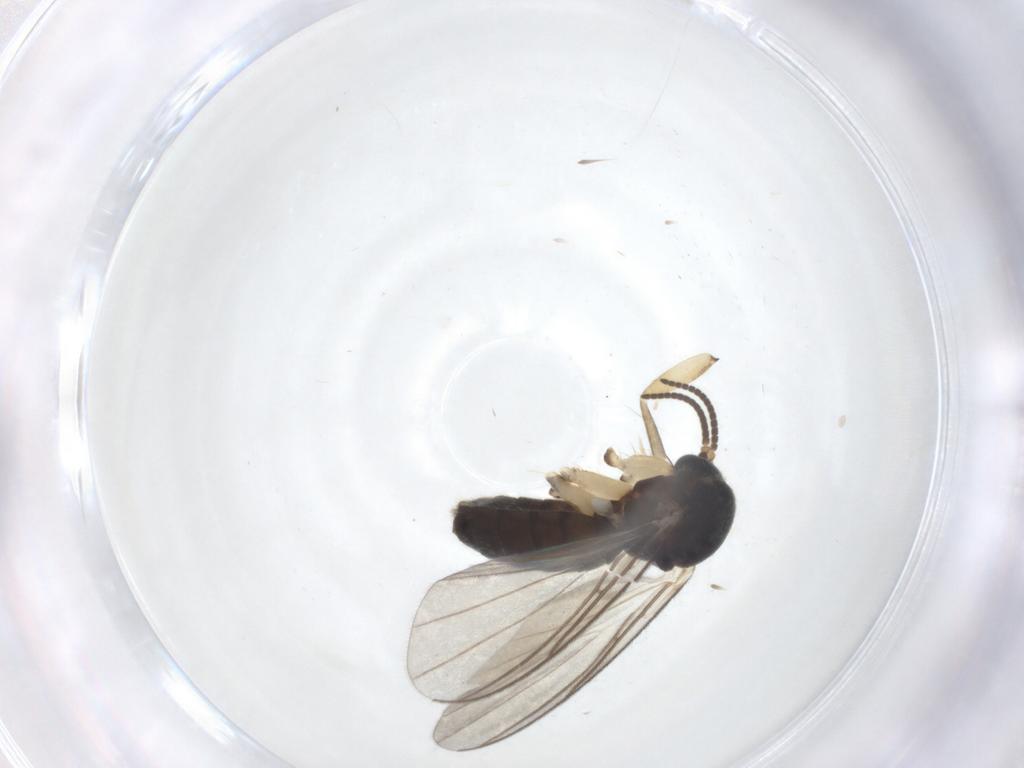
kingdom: Animalia
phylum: Arthropoda
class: Insecta
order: Diptera
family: Mycetophilidae
